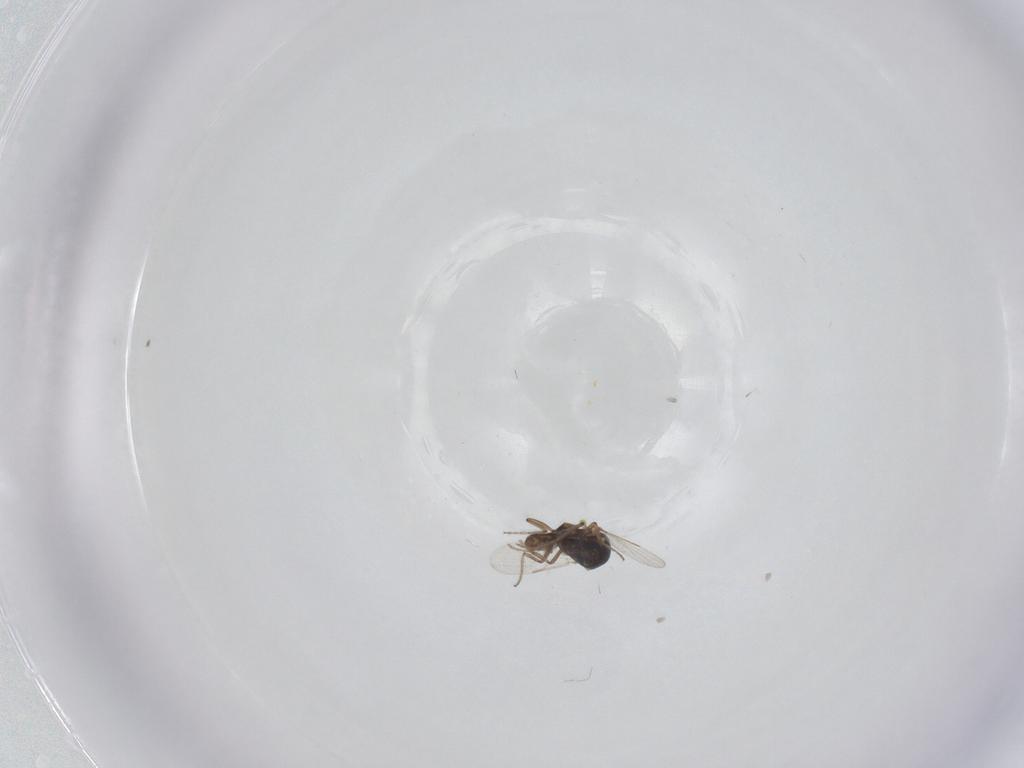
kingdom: Animalia
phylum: Arthropoda
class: Insecta
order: Diptera
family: Ceratopogonidae
